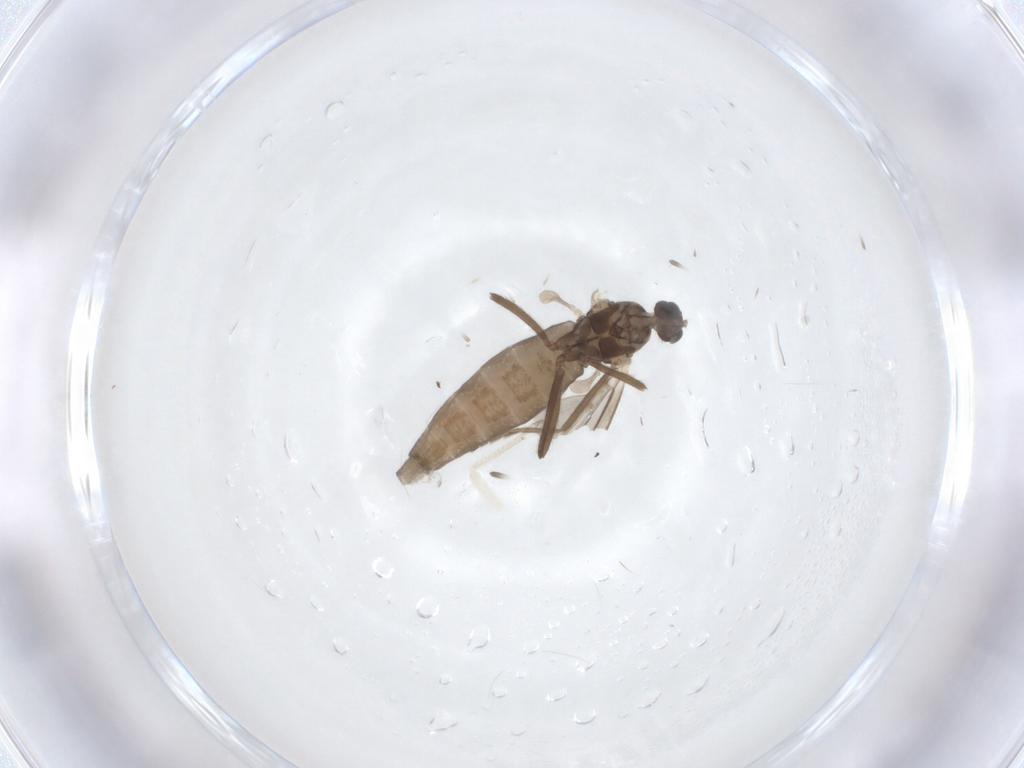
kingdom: Animalia
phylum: Arthropoda
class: Insecta
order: Diptera
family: Cecidomyiidae
